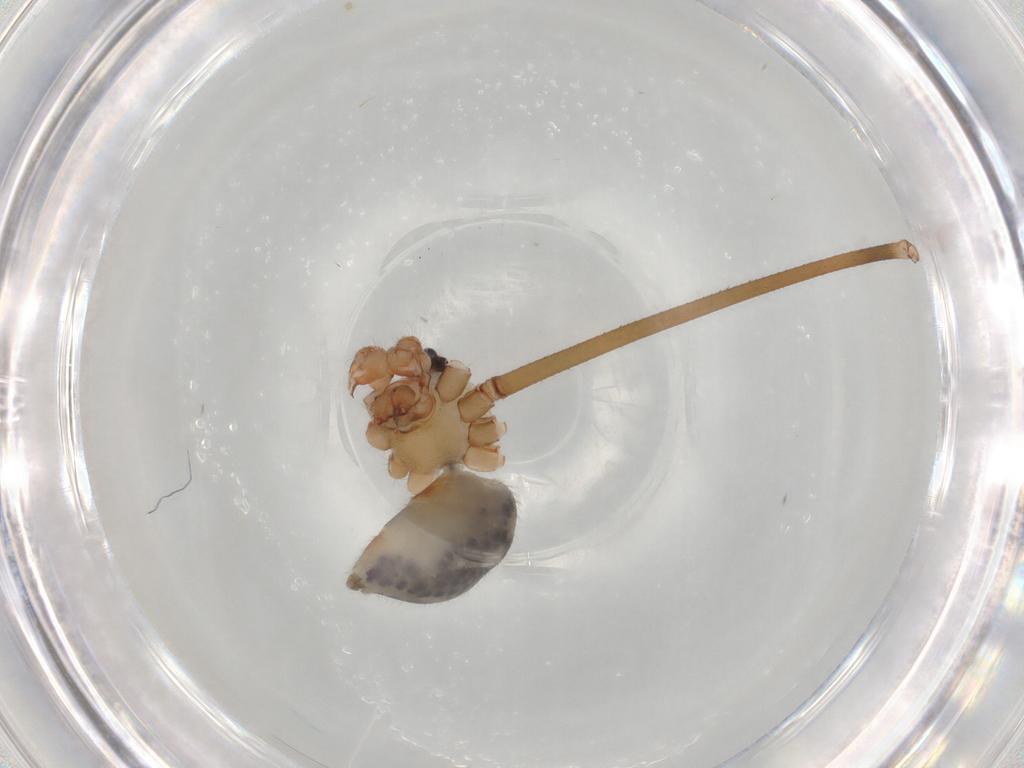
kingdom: Animalia
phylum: Arthropoda
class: Arachnida
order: Araneae
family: Pholcidae
